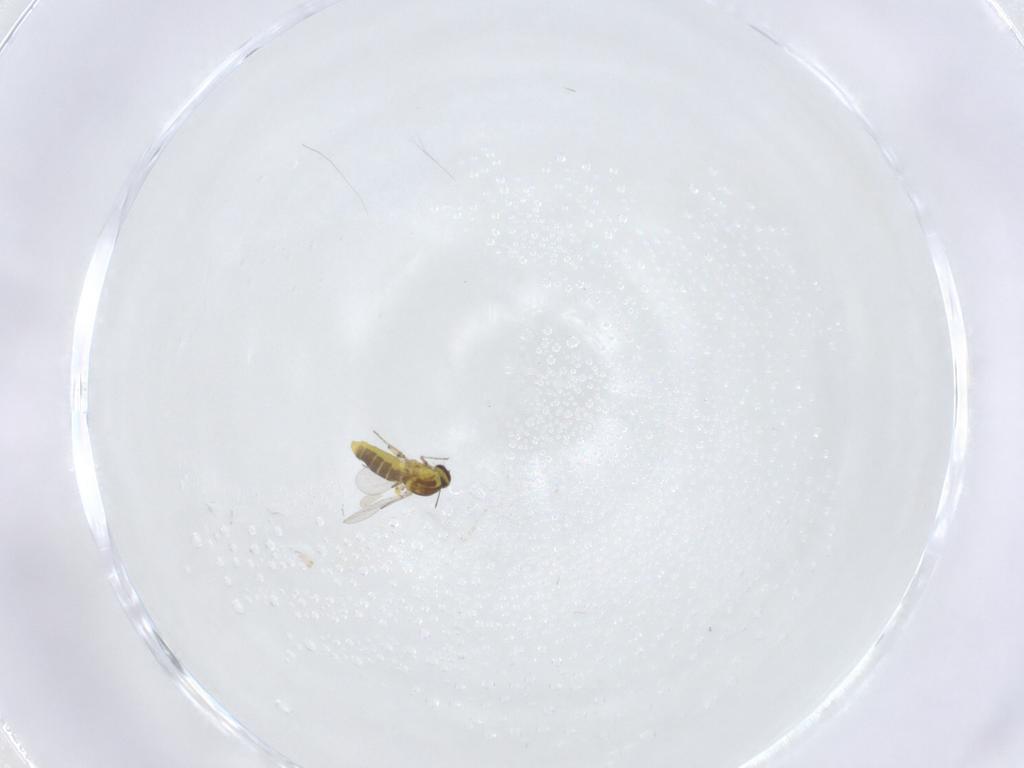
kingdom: Animalia
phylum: Arthropoda
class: Insecta
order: Diptera
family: Ceratopogonidae
